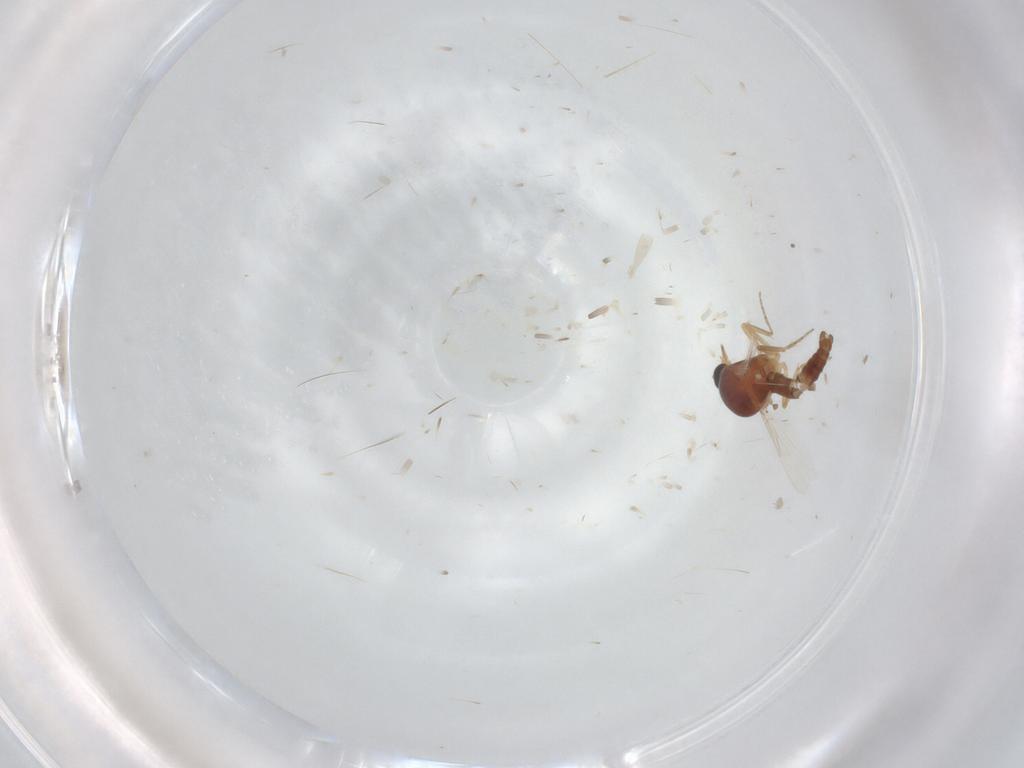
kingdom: Animalia
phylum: Arthropoda
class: Insecta
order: Diptera
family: Ceratopogonidae
